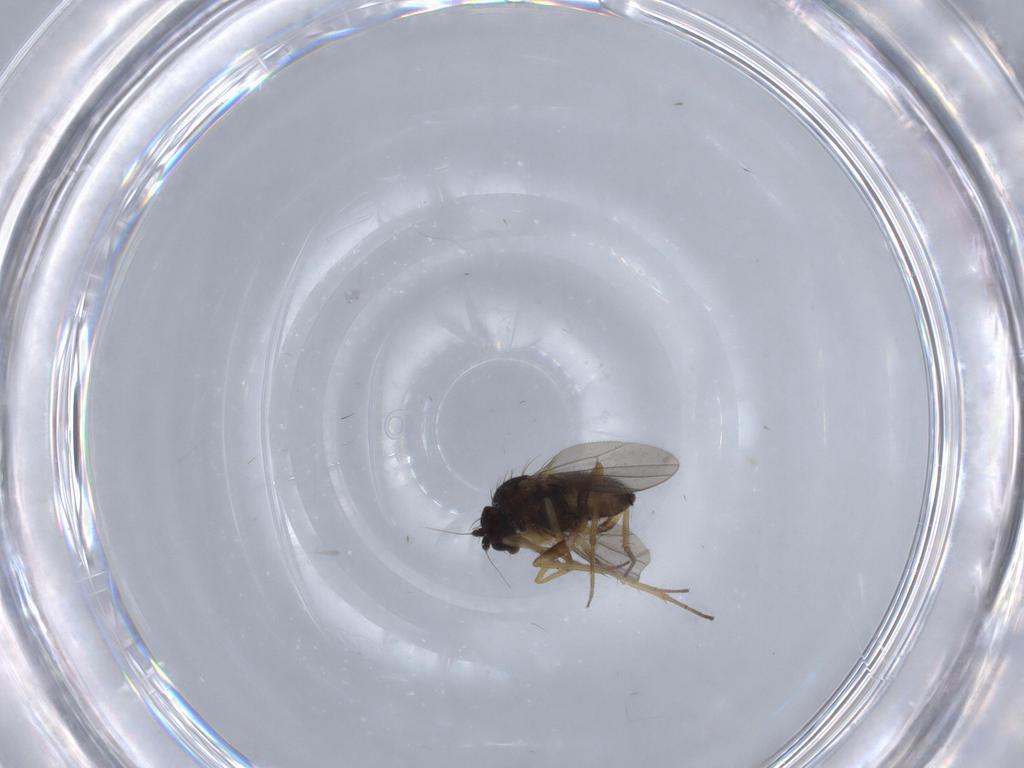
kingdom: Animalia
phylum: Arthropoda
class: Insecta
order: Diptera
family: Dolichopodidae
